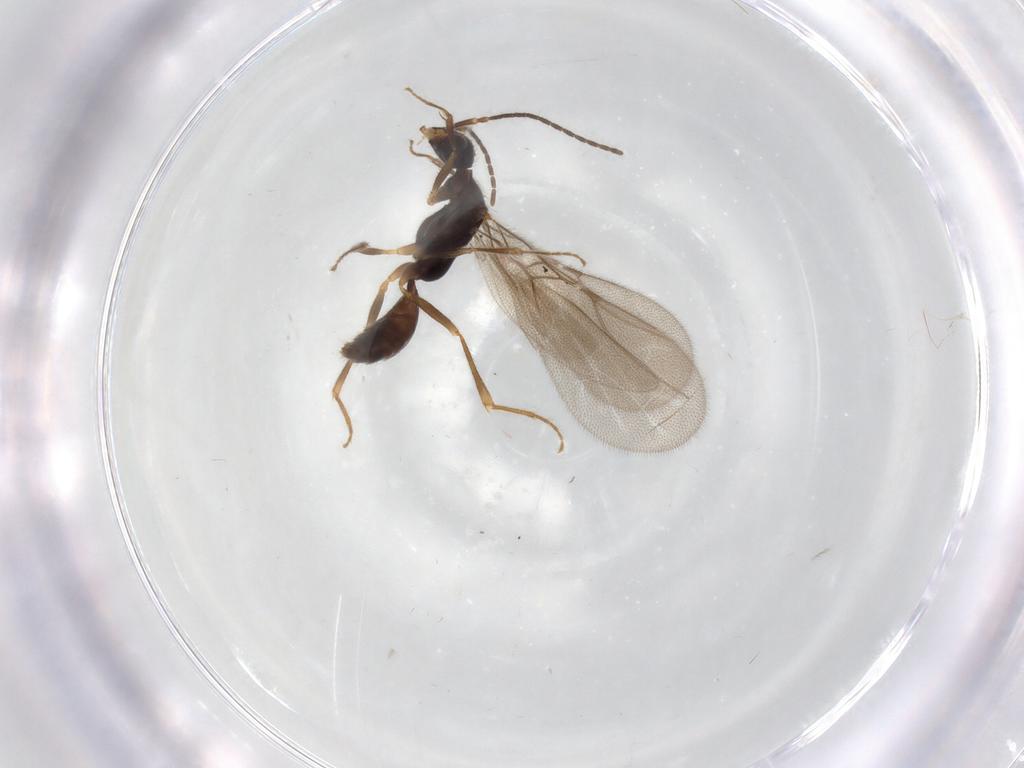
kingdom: Animalia
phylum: Arthropoda
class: Insecta
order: Hymenoptera
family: Bethylidae
